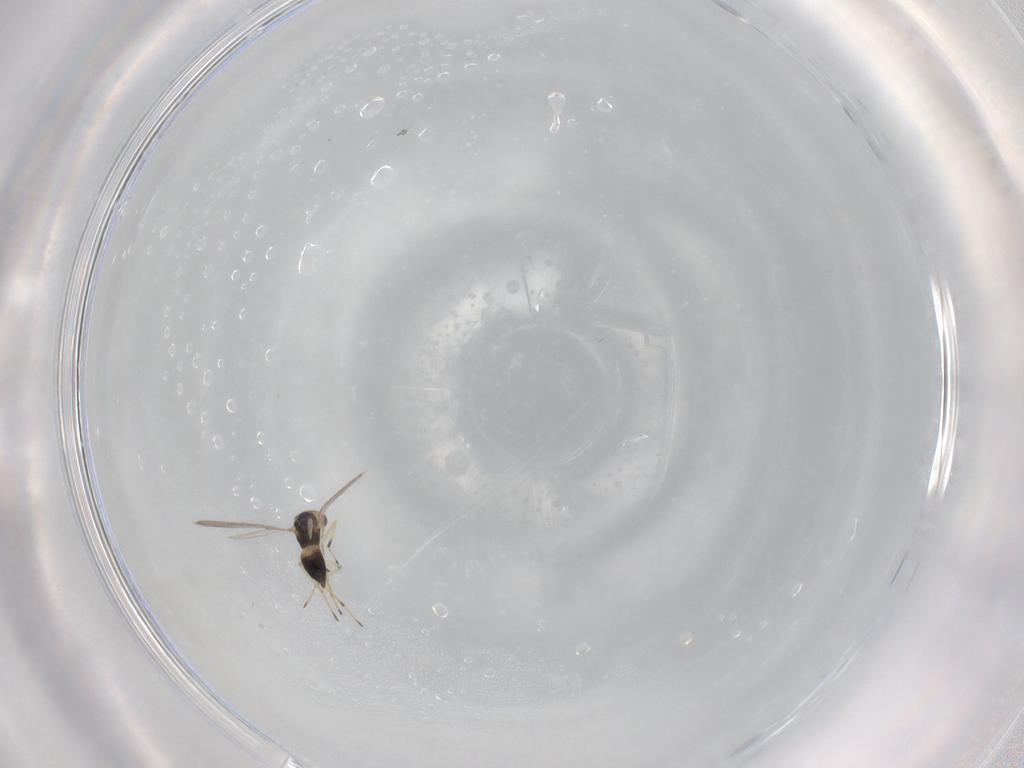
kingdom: Animalia
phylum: Arthropoda
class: Insecta
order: Hymenoptera
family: Eulophidae
